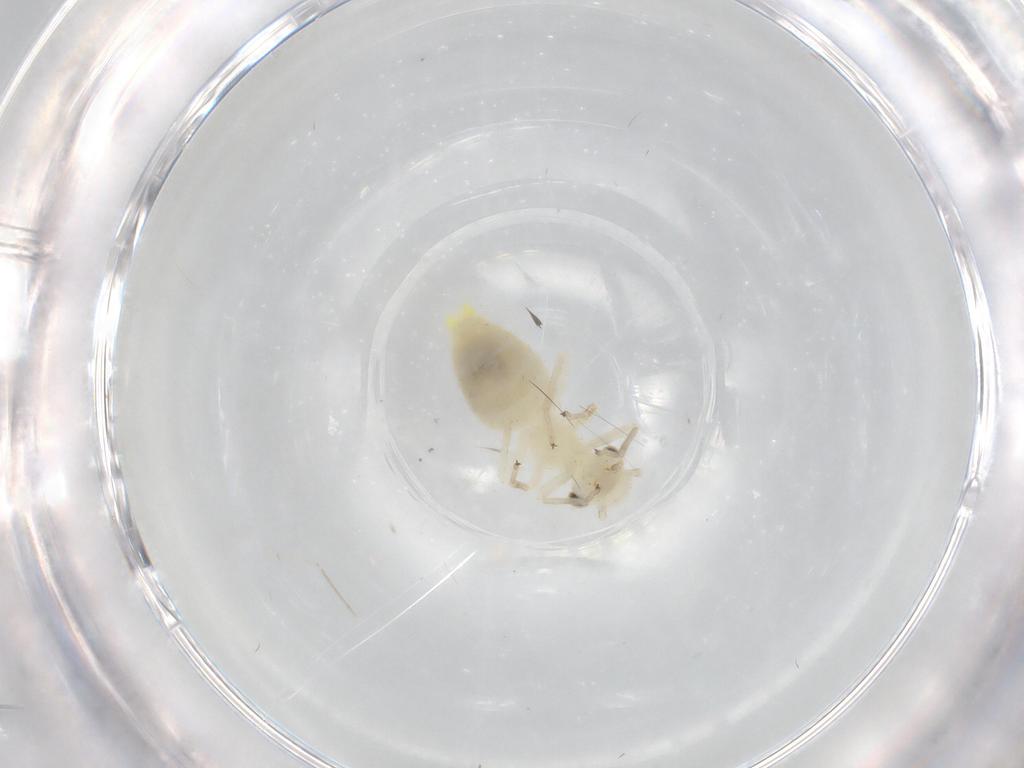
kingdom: Animalia
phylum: Arthropoda
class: Insecta
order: Psocodea
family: Caeciliusidae
